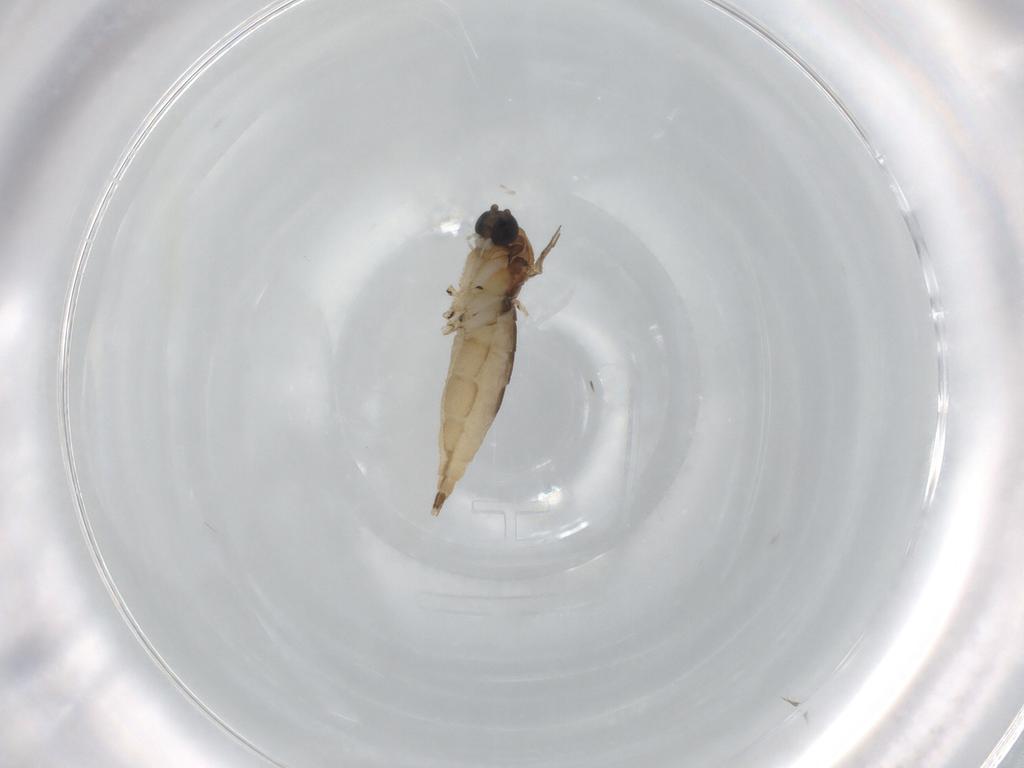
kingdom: Animalia
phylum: Arthropoda
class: Insecta
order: Diptera
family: Sciaridae
